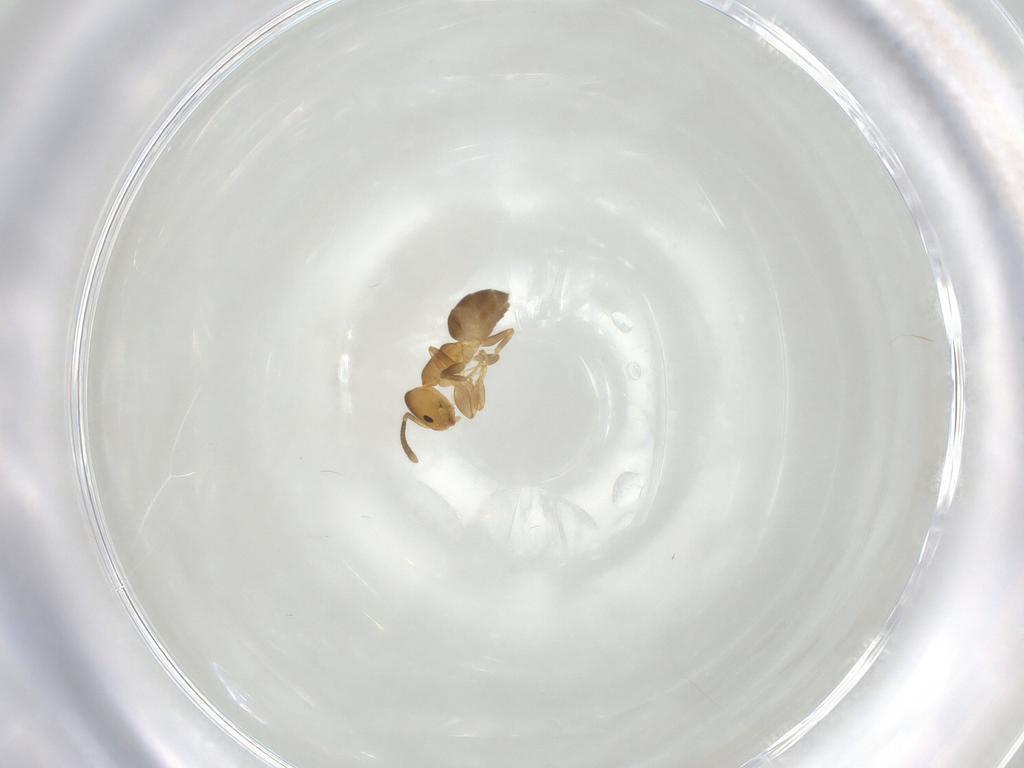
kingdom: Animalia
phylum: Arthropoda
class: Insecta
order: Hymenoptera
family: Formicidae
